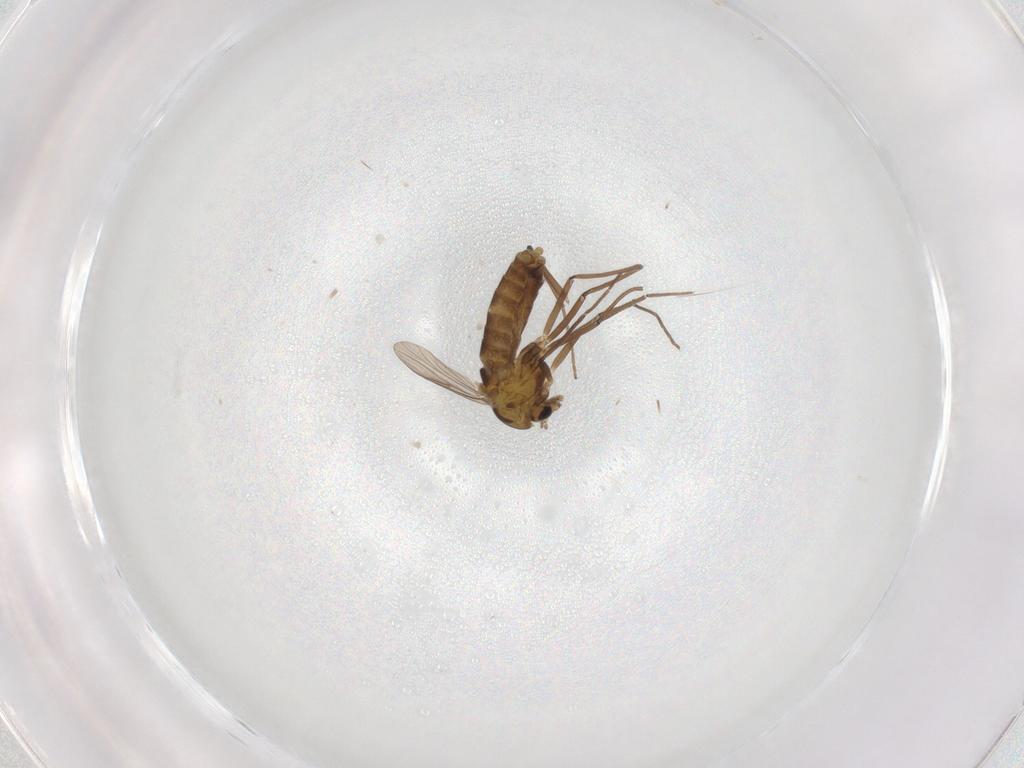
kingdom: Animalia
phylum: Arthropoda
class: Insecta
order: Diptera
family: Chironomidae
